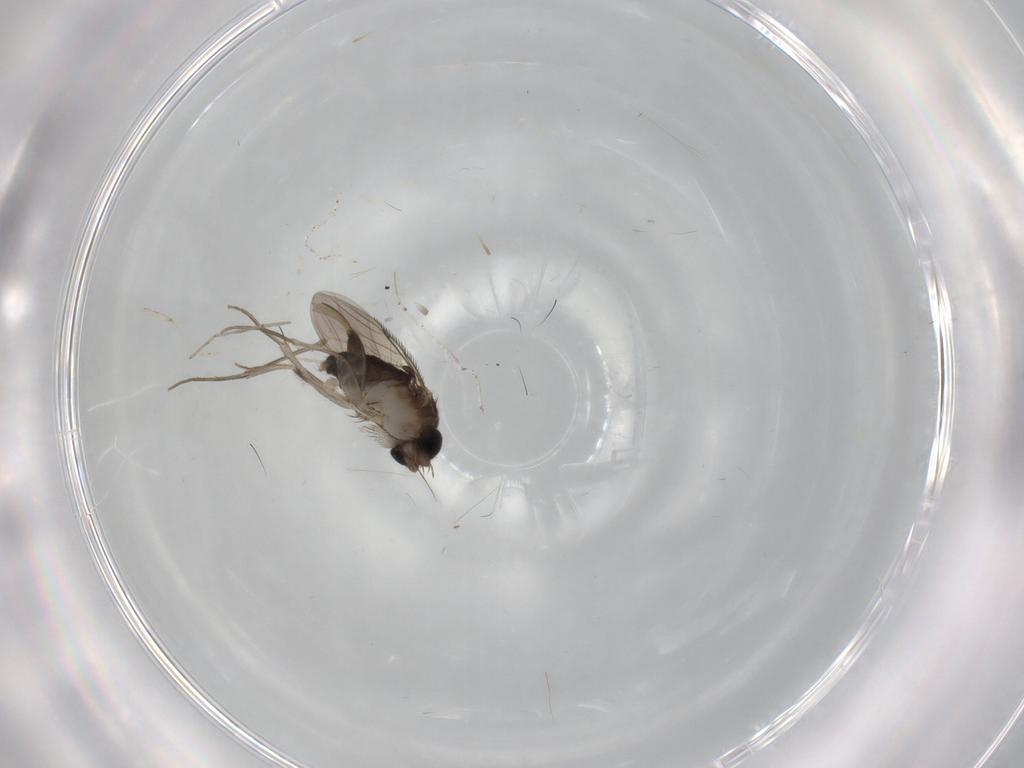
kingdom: Animalia
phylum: Arthropoda
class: Insecta
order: Diptera
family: Phoridae
